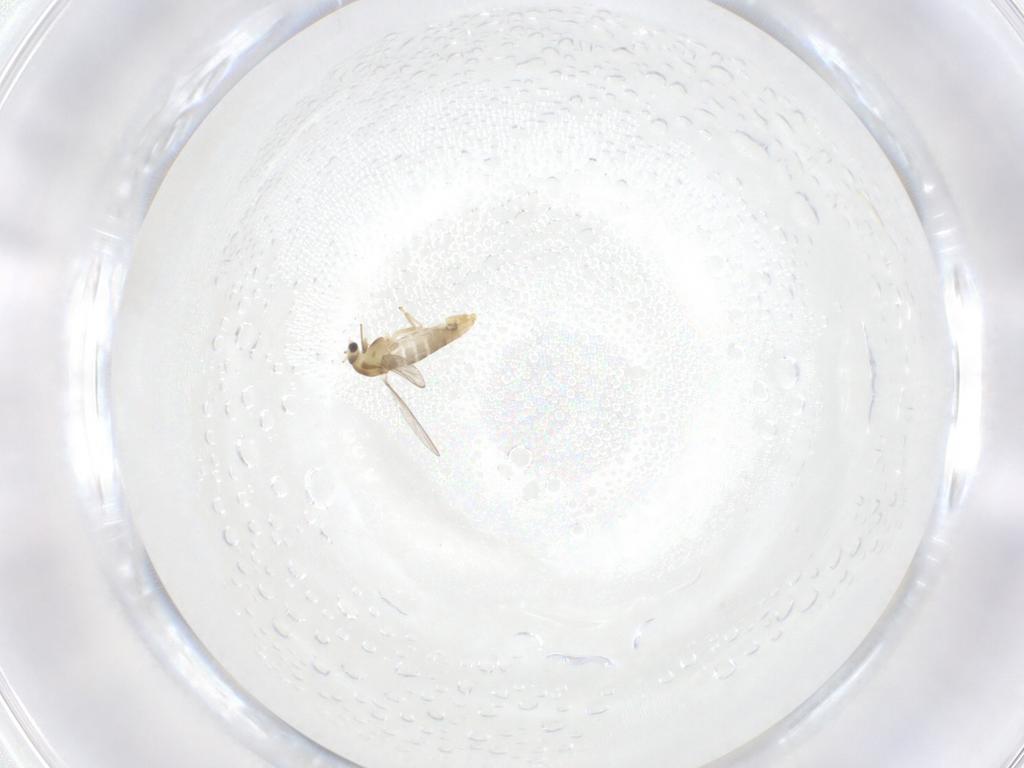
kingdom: Animalia
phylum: Arthropoda
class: Insecta
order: Diptera
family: Chironomidae
